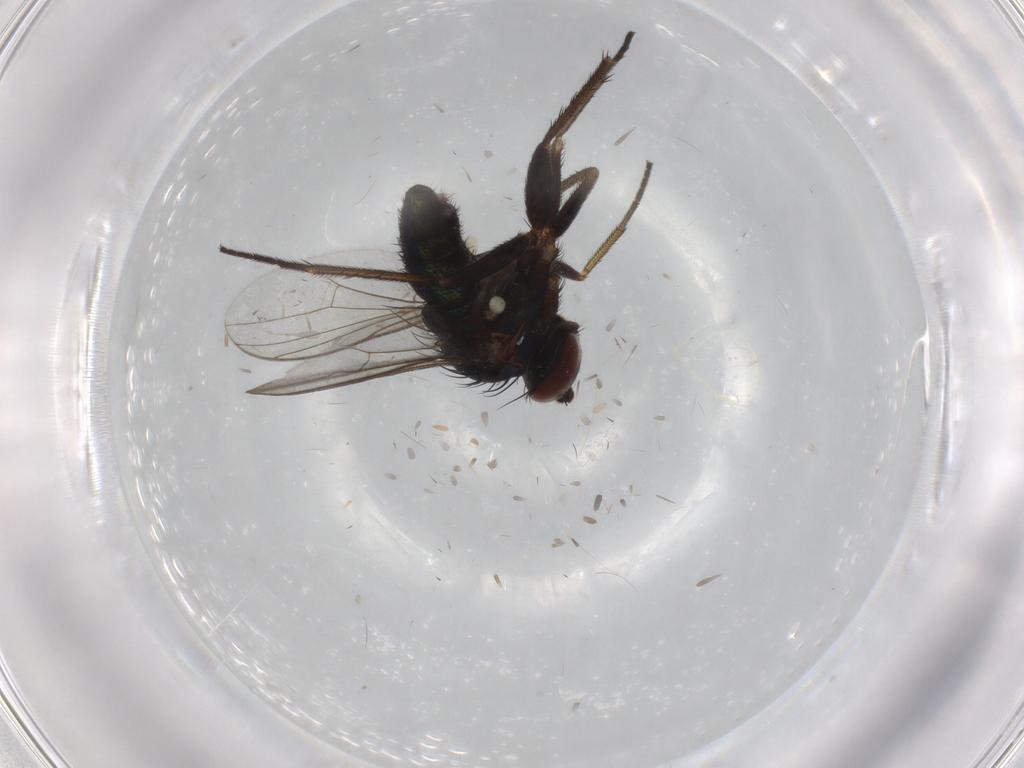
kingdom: Animalia
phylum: Arthropoda
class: Insecta
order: Diptera
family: Dolichopodidae
